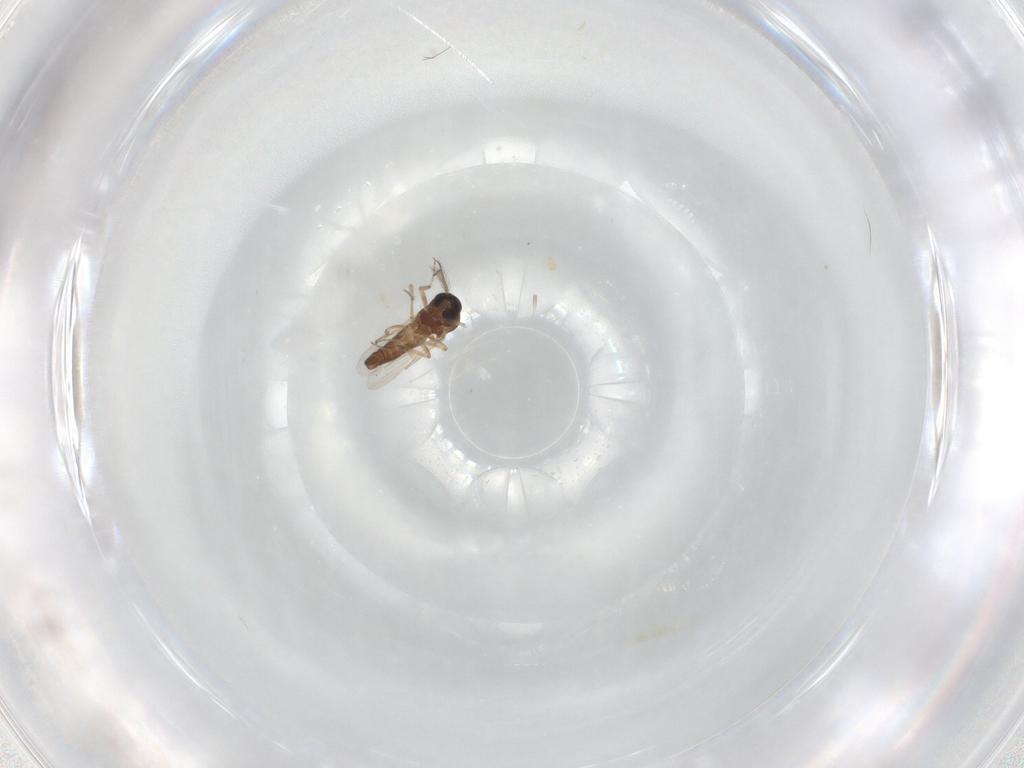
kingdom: Animalia
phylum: Arthropoda
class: Insecta
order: Diptera
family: Ceratopogonidae
